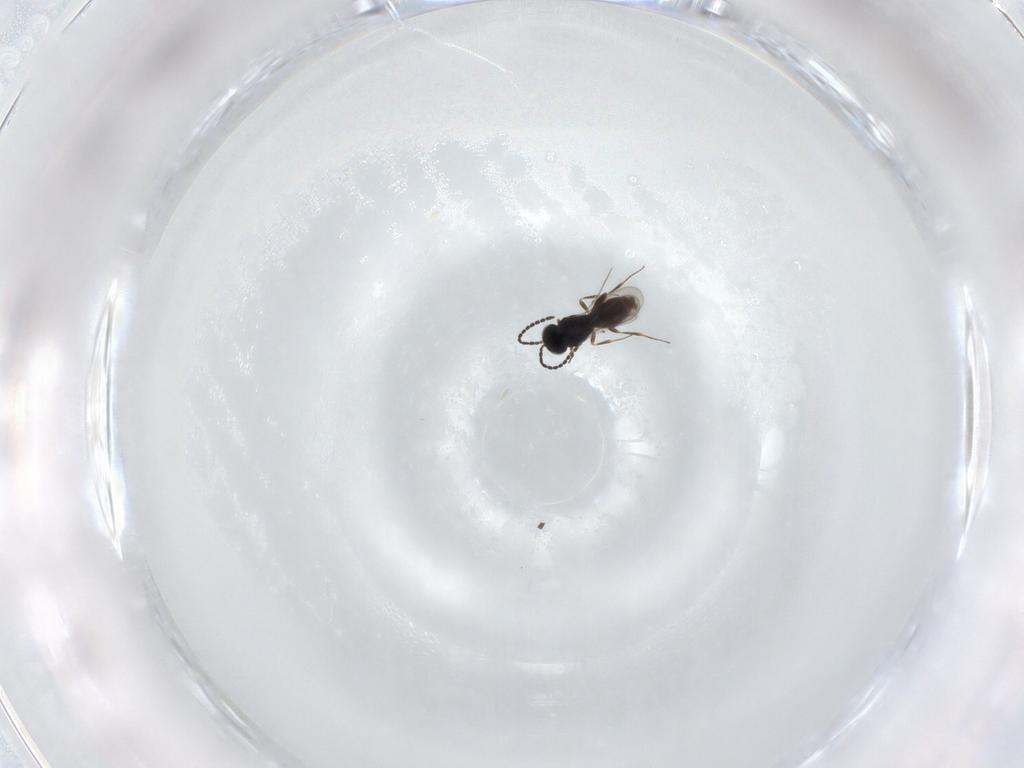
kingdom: Animalia
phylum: Arthropoda
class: Insecta
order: Hymenoptera
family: Scelionidae
